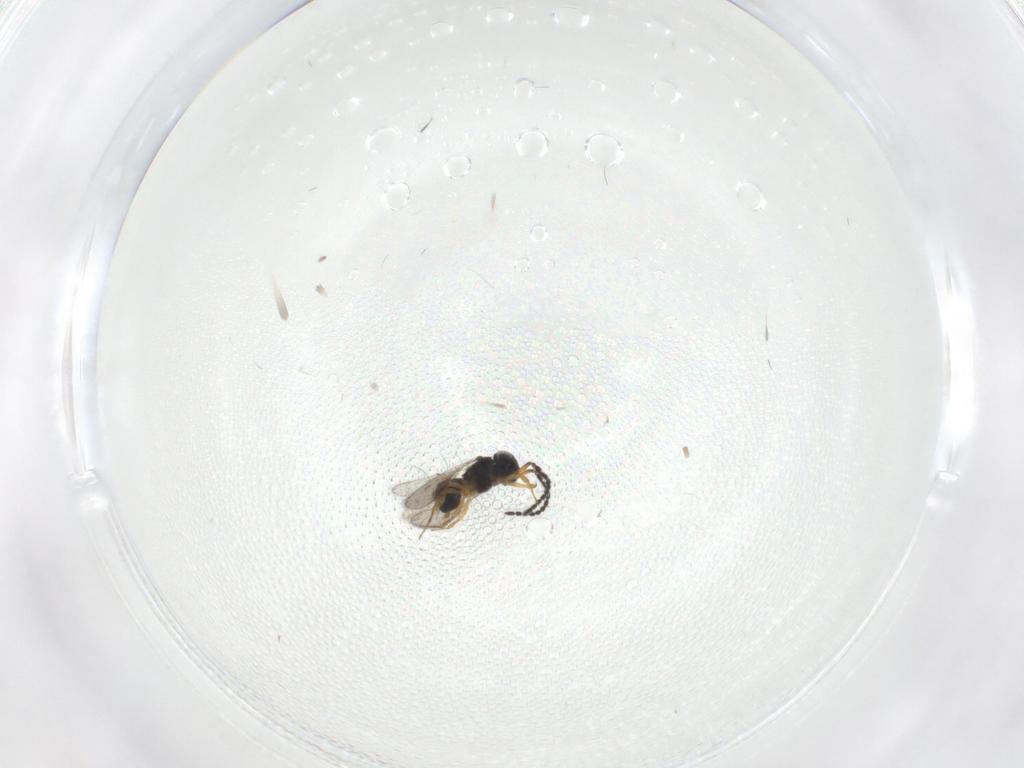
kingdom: Animalia
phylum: Arthropoda
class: Insecta
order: Hymenoptera
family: Scelionidae
